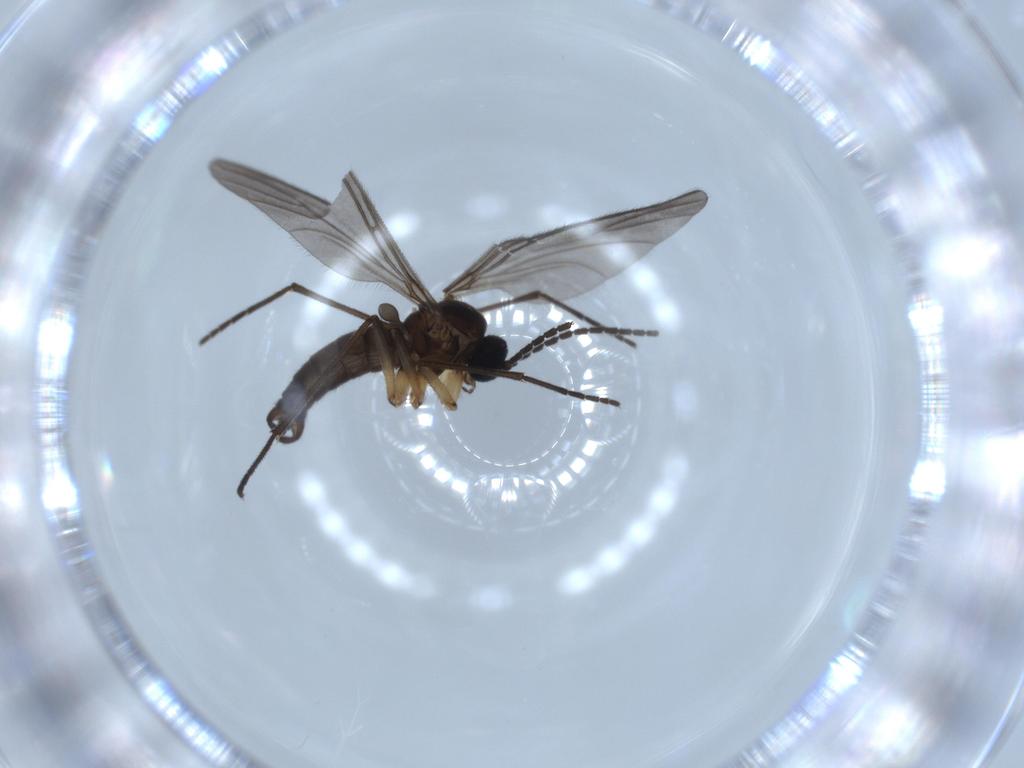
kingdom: Animalia
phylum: Arthropoda
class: Insecta
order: Diptera
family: Sciaridae
